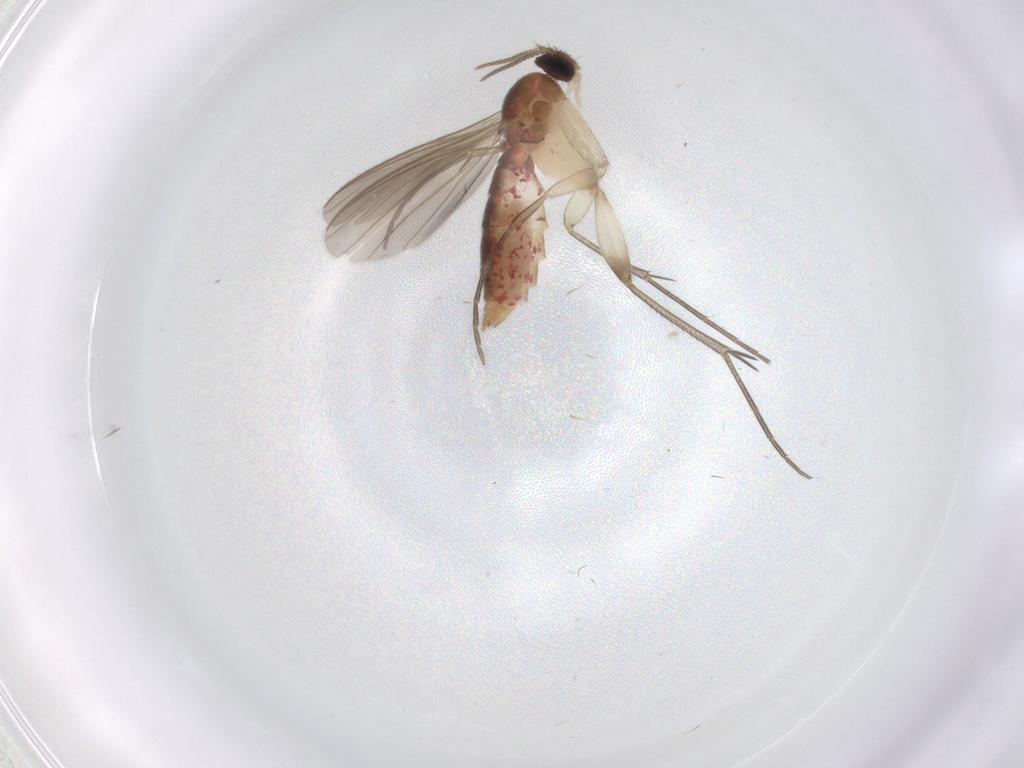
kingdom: Animalia
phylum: Arthropoda
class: Insecta
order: Diptera
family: Mycetophilidae
